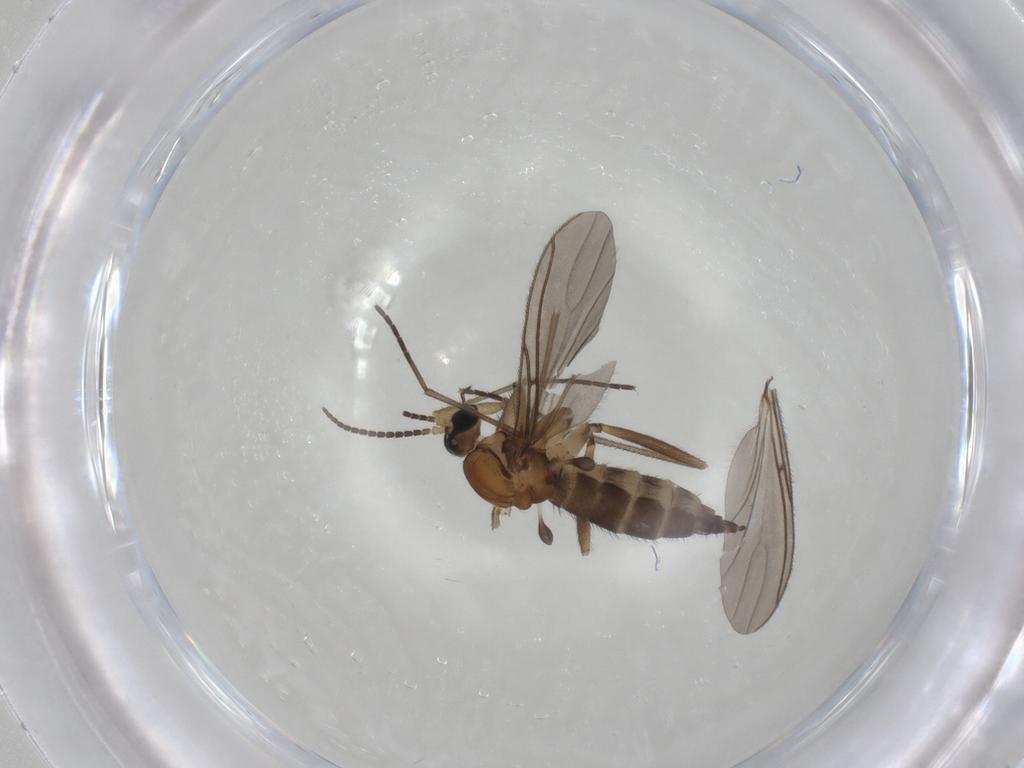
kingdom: Animalia
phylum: Arthropoda
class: Insecta
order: Diptera
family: Sciaridae
